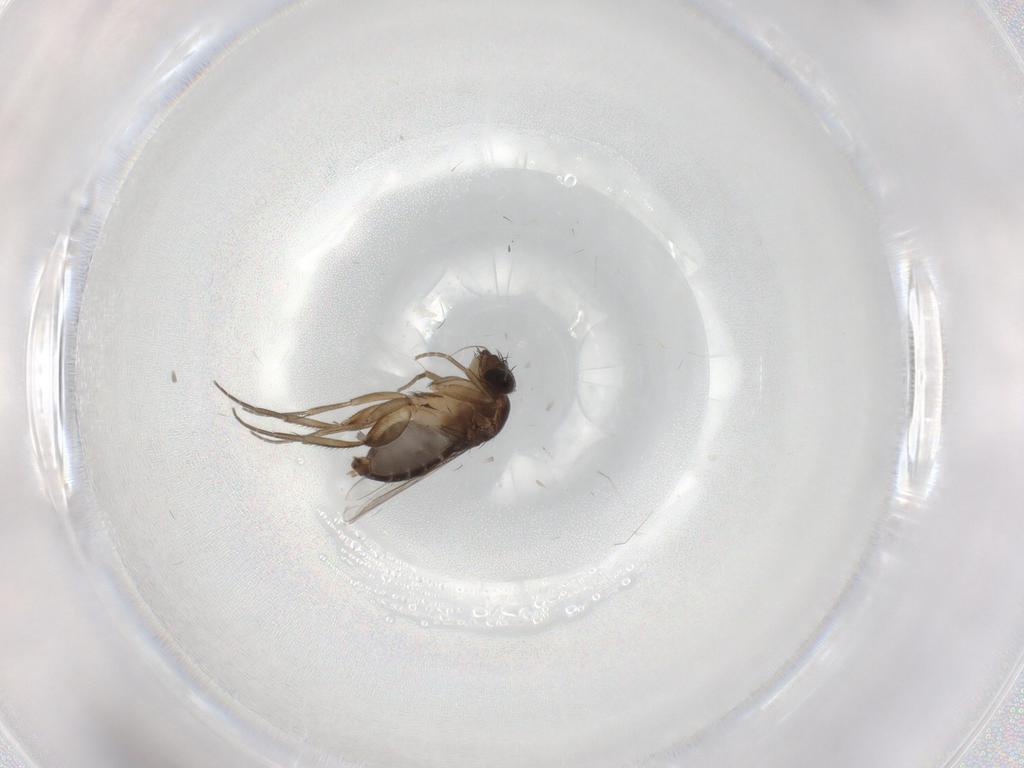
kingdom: Animalia
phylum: Arthropoda
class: Insecta
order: Diptera
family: Phoridae
